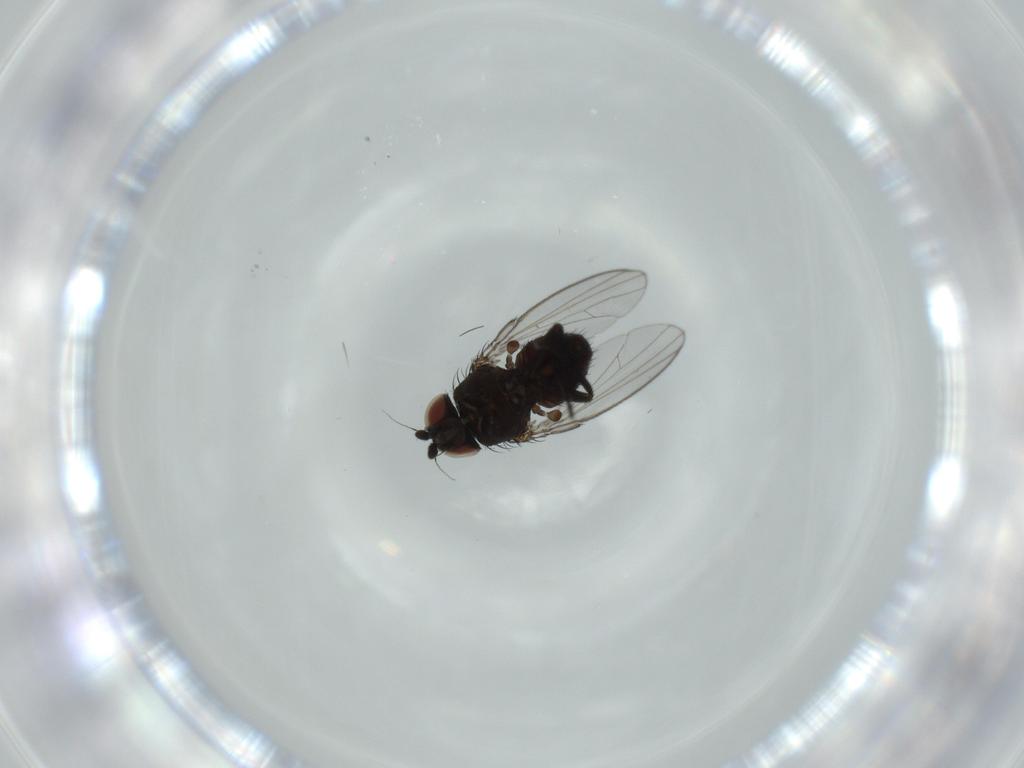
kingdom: Animalia
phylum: Arthropoda
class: Insecta
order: Diptera
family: Milichiidae
